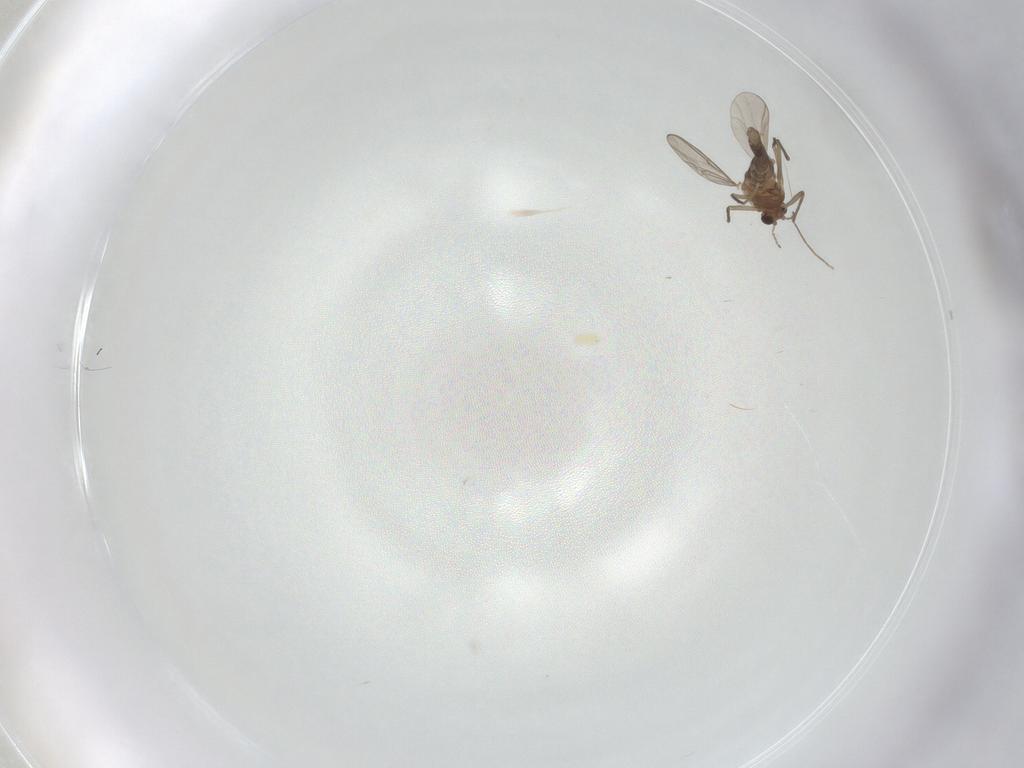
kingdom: Animalia
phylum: Arthropoda
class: Insecta
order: Diptera
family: Chironomidae
